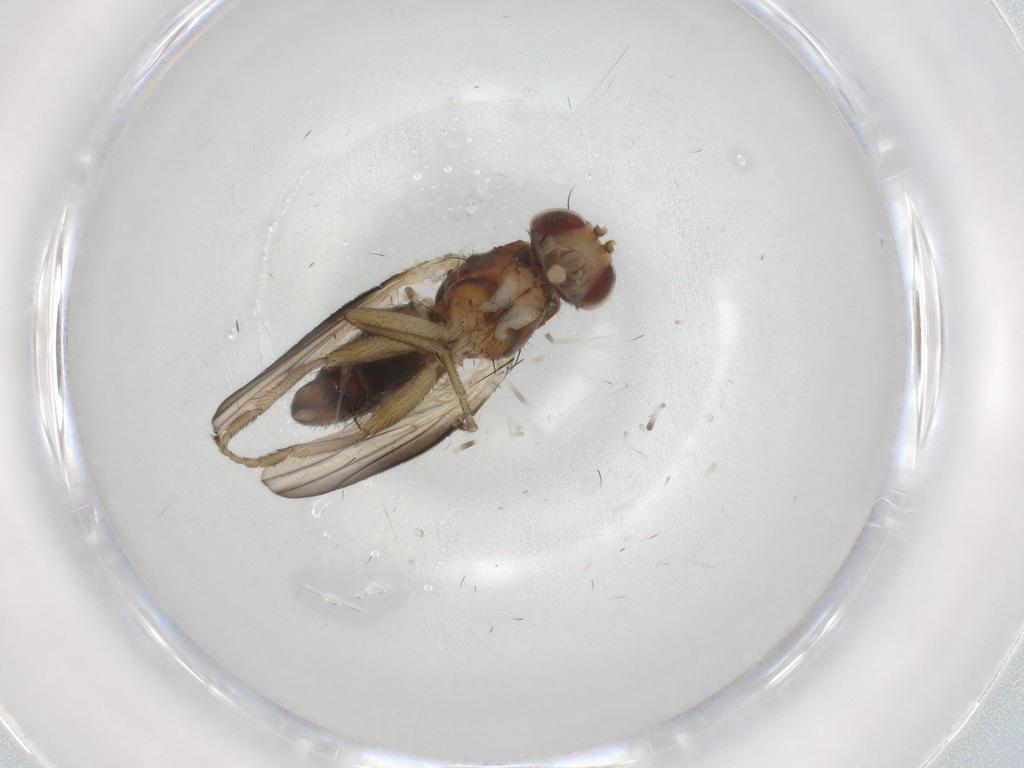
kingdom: Animalia
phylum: Arthropoda
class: Insecta
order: Diptera
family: Heleomyzidae
